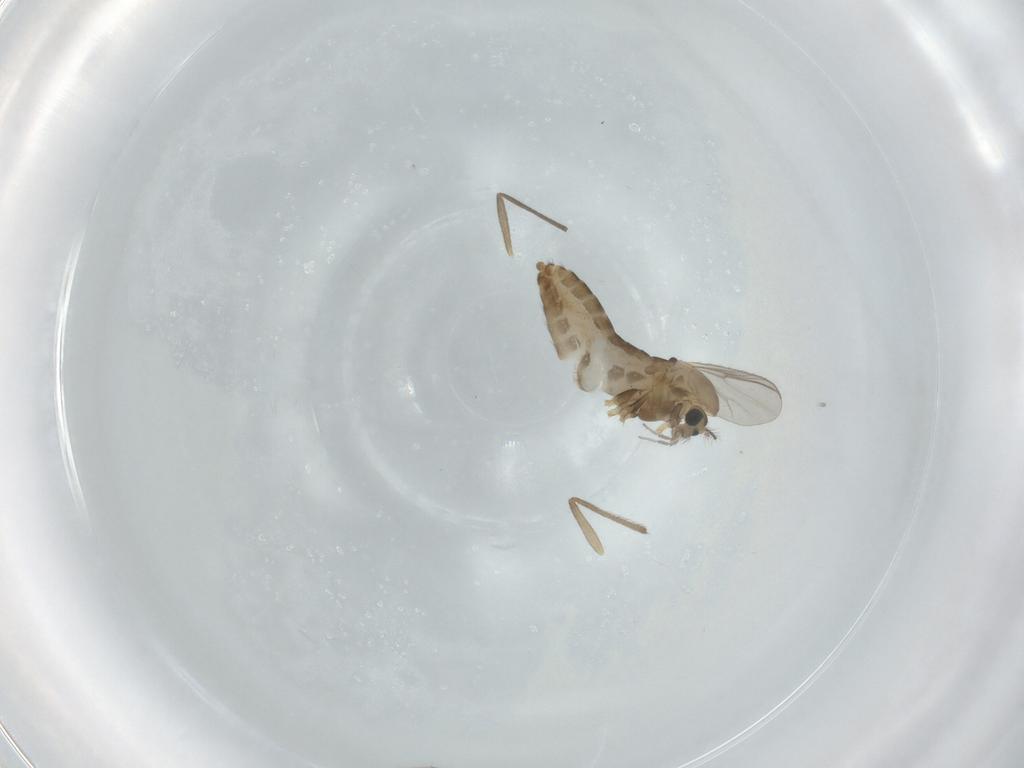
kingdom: Animalia
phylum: Arthropoda
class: Insecta
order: Diptera
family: Chironomidae
